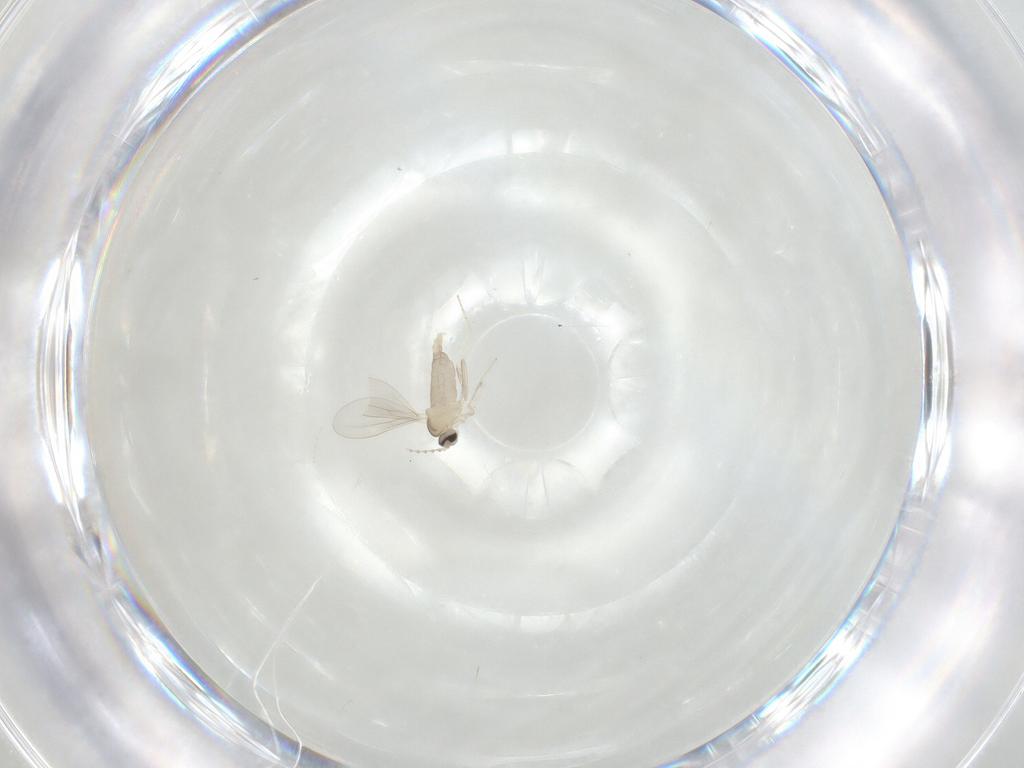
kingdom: Animalia
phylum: Arthropoda
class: Insecta
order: Diptera
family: Cecidomyiidae
